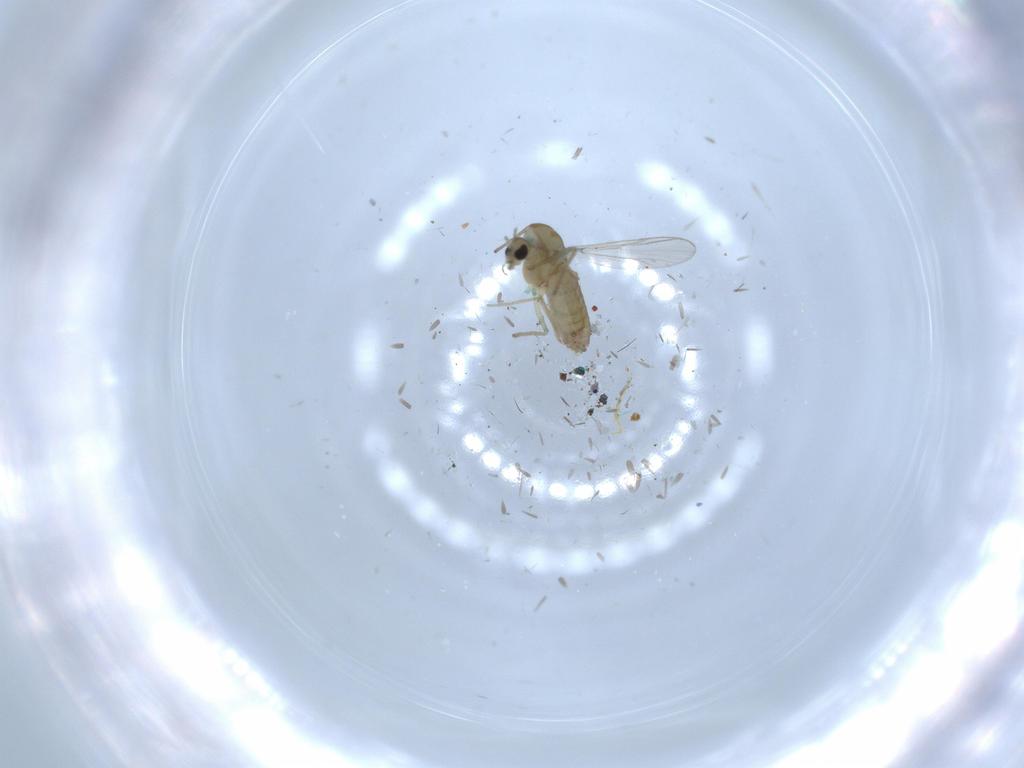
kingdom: Animalia
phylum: Arthropoda
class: Insecta
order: Diptera
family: Chironomidae
